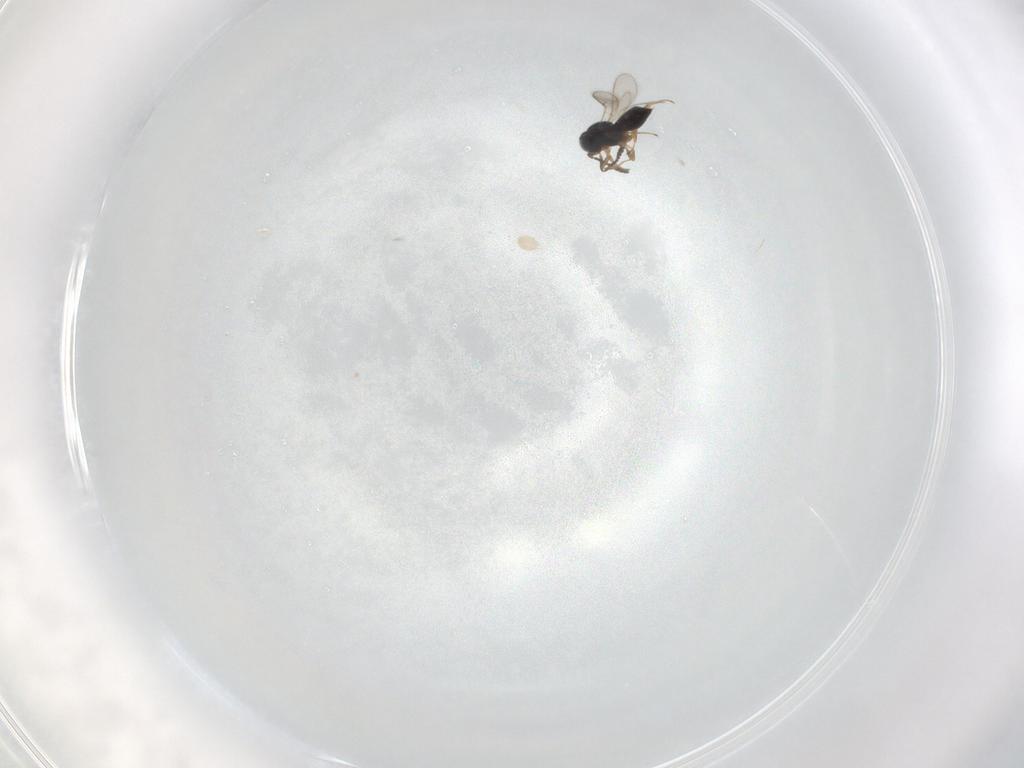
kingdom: Animalia
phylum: Arthropoda
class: Insecta
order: Hymenoptera
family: Scelionidae
